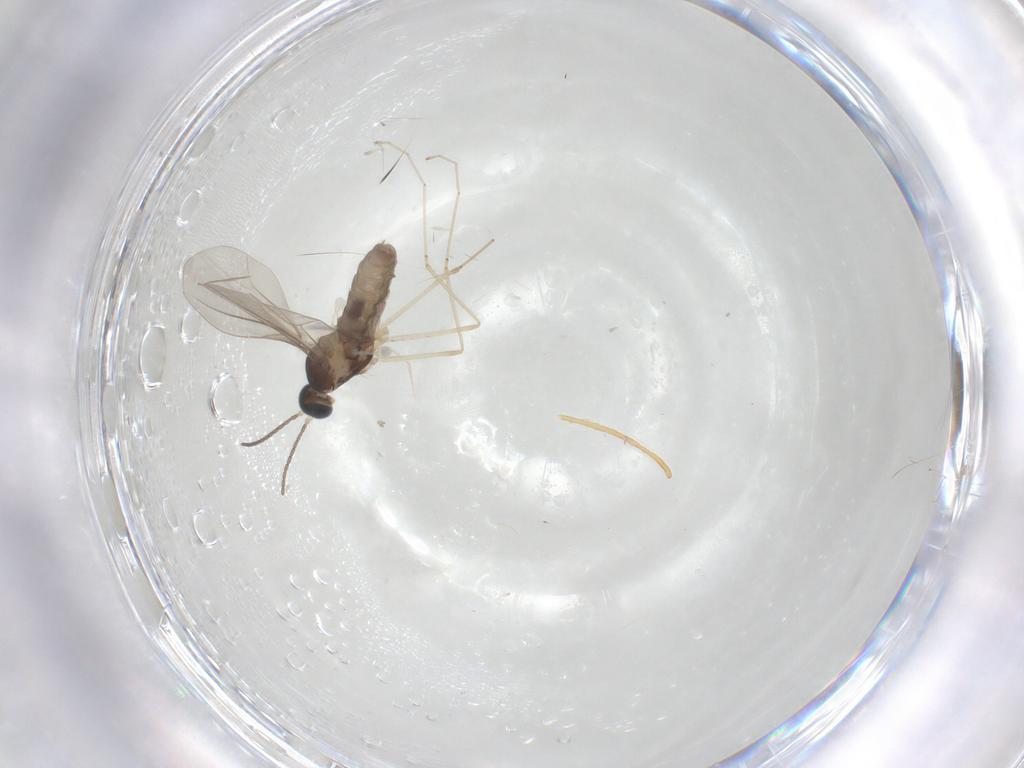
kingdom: Animalia
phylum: Arthropoda
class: Insecta
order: Diptera
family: Cecidomyiidae
